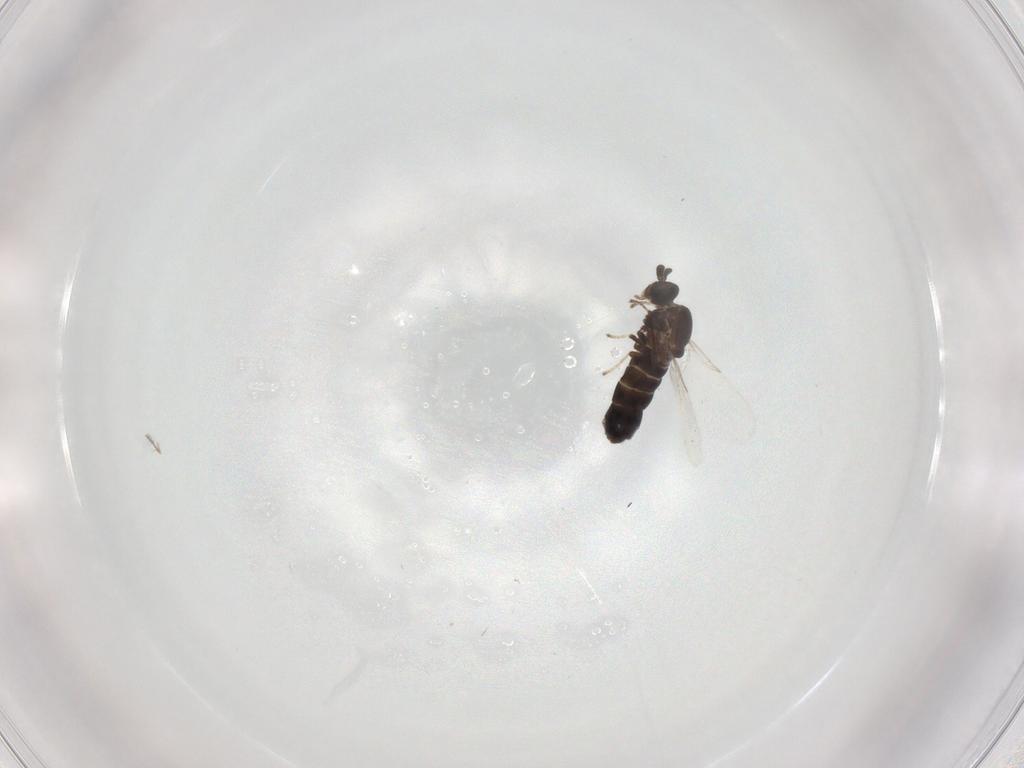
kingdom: Animalia
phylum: Arthropoda
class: Insecta
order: Diptera
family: Scatopsidae
